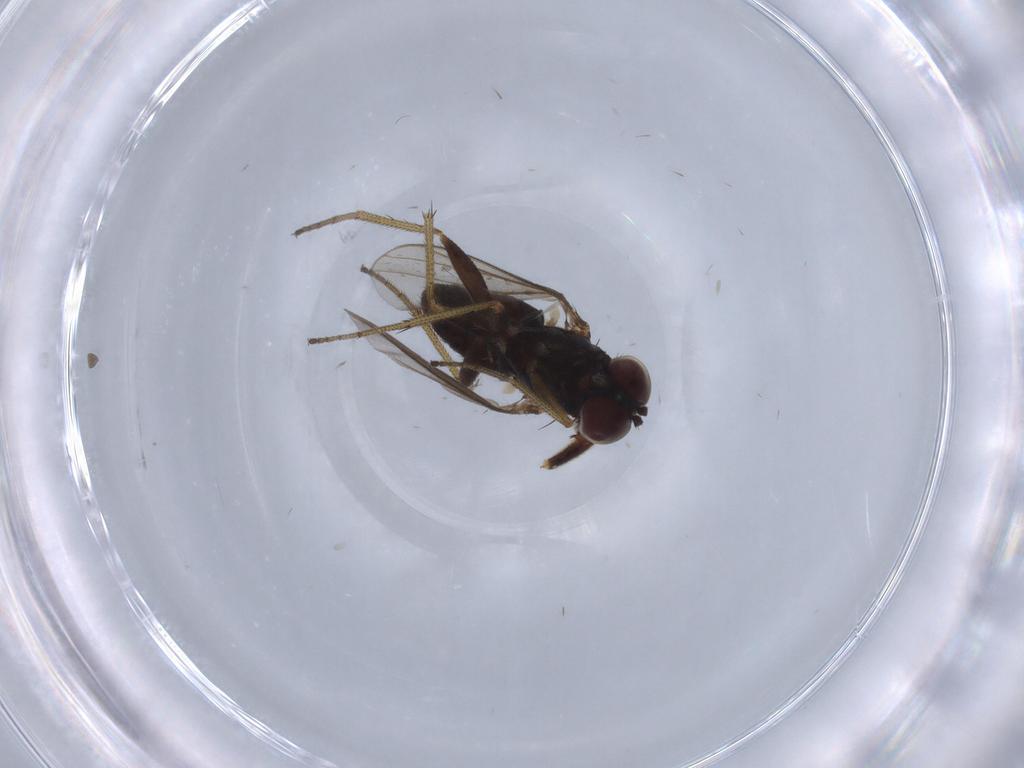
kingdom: Animalia
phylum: Arthropoda
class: Insecta
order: Diptera
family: Dolichopodidae
